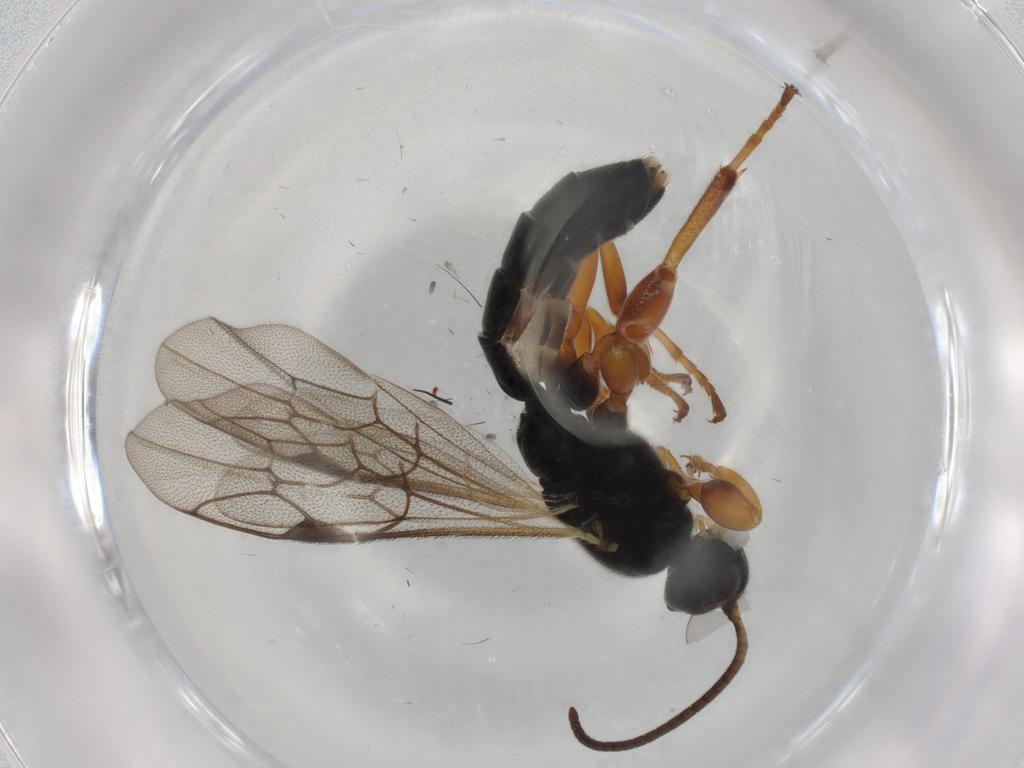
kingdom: Animalia
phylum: Arthropoda
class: Insecta
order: Hymenoptera
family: Ichneumonidae
